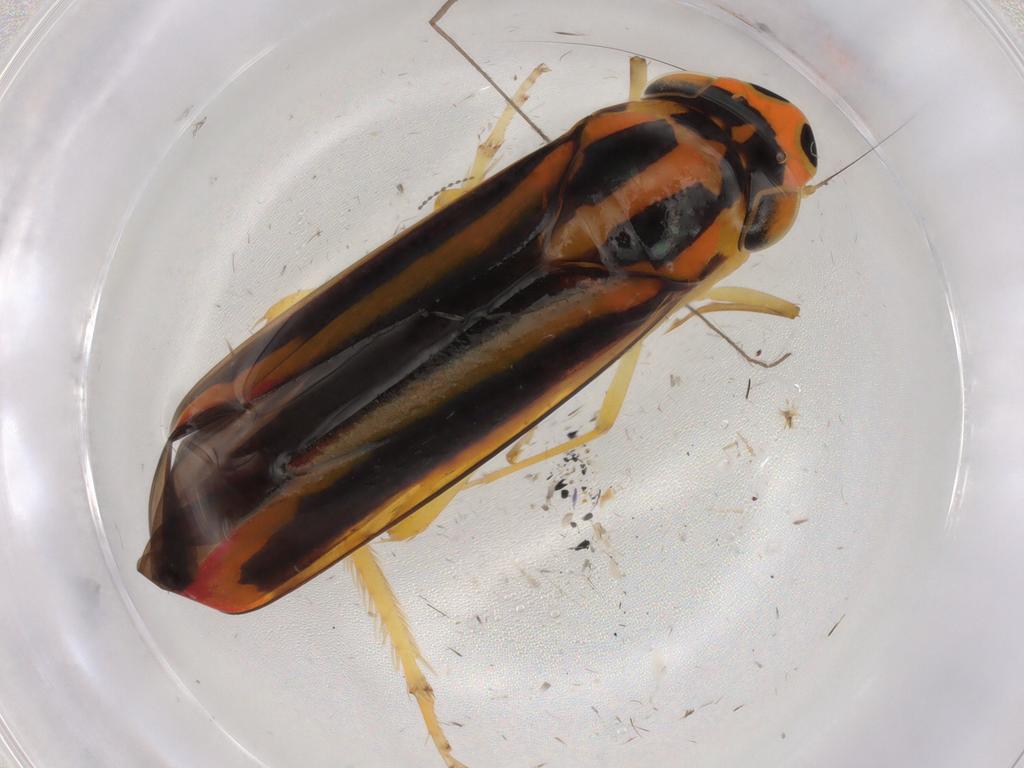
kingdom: Animalia
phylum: Arthropoda
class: Insecta
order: Hemiptera
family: Cicadellidae
